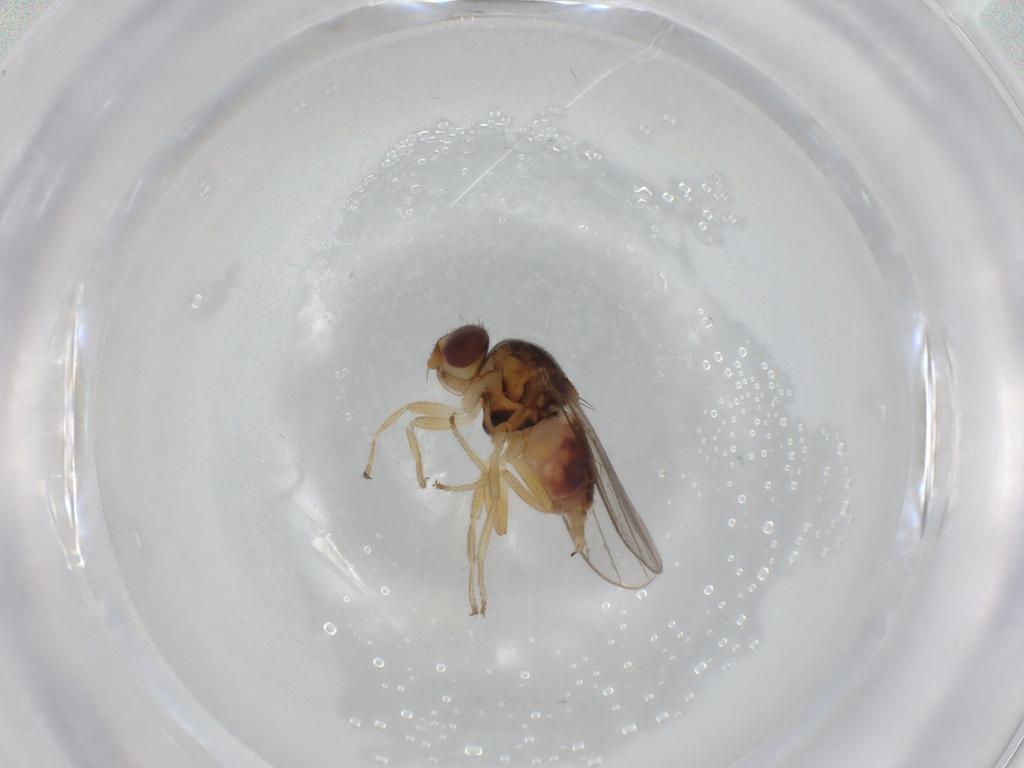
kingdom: Animalia
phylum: Arthropoda
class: Insecta
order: Diptera
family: Chloropidae
